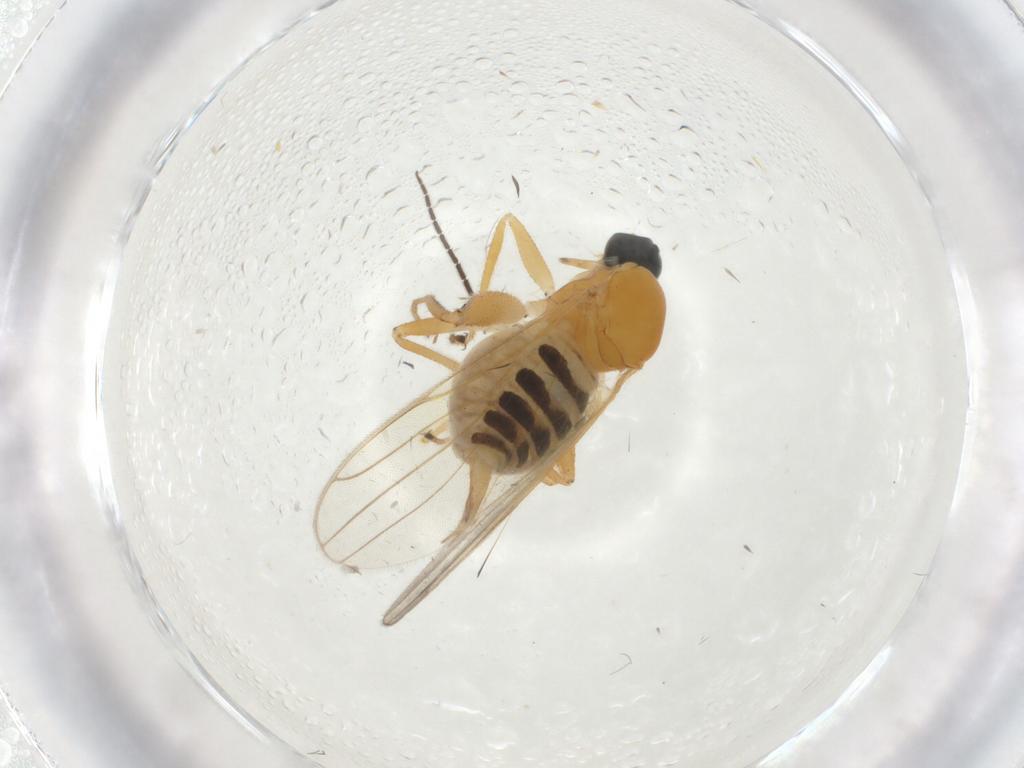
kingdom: Animalia
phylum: Arthropoda
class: Insecta
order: Diptera
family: Hybotidae
